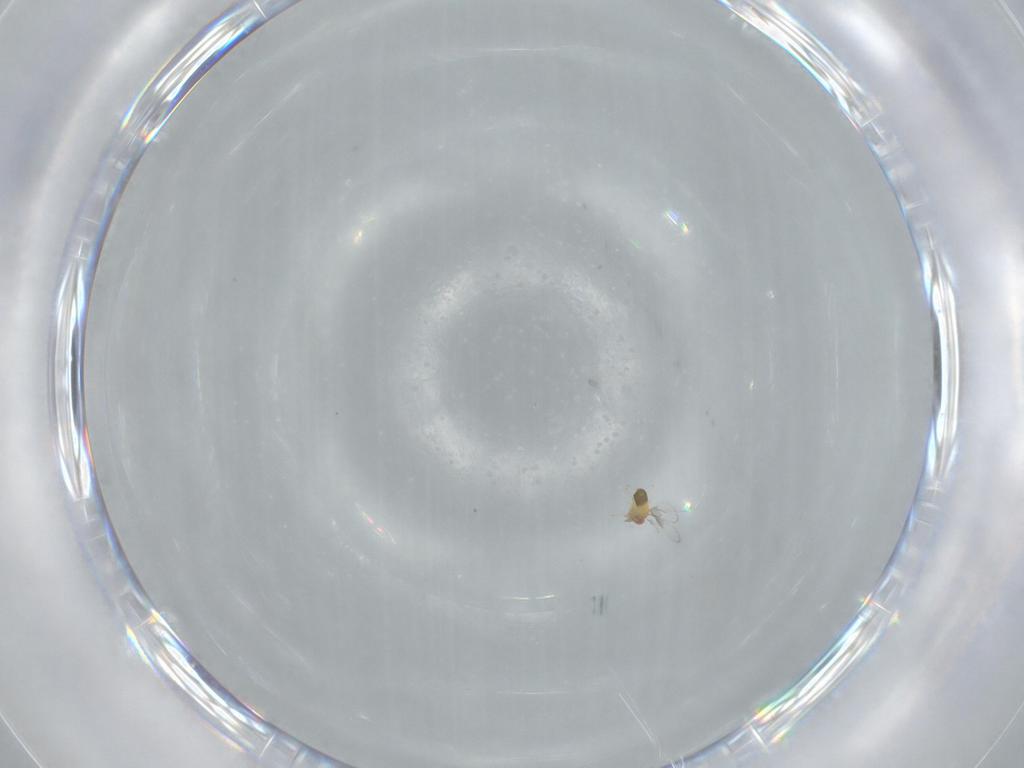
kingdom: Animalia
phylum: Arthropoda
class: Insecta
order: Hymenoptera
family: Trichogrammatidae
